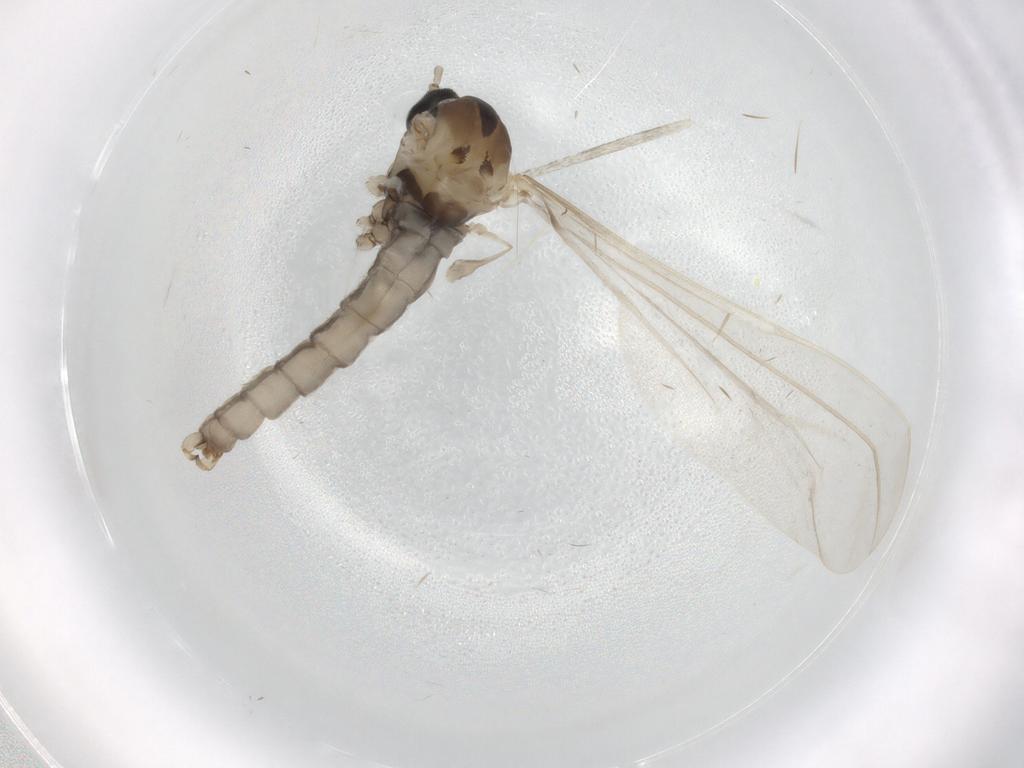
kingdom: Animalia
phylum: Arthropoda
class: Insecta
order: Diptera
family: Cecidomyiidae
